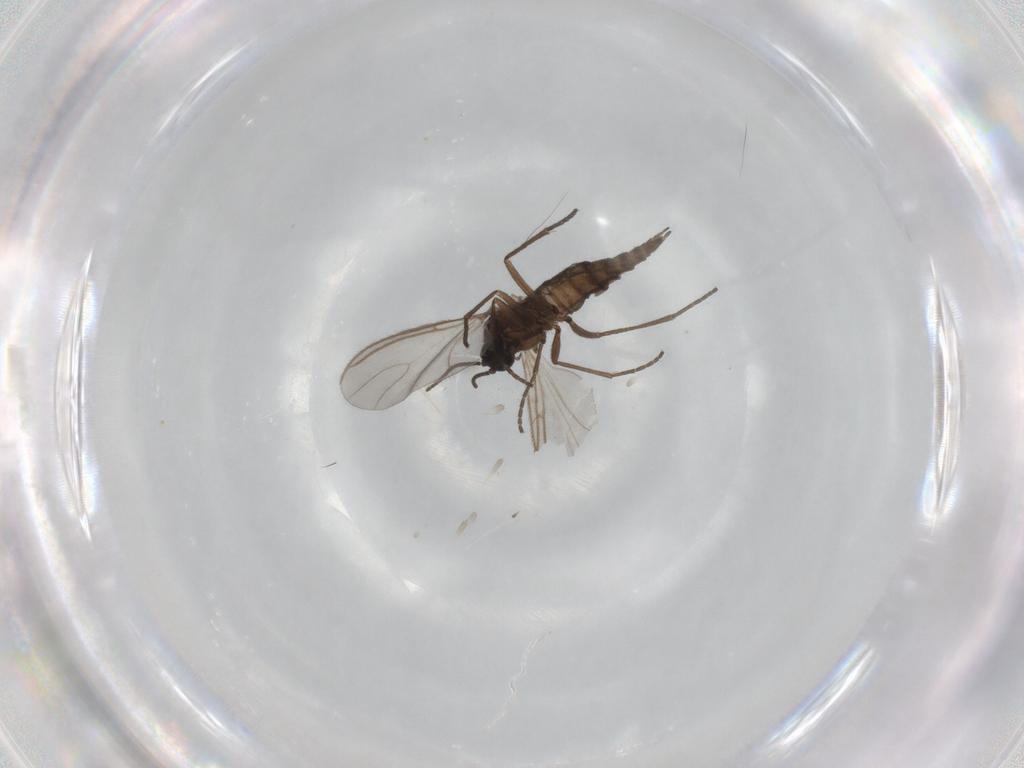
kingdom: Animalia
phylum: Arthropoda
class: Insecta
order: Diptera
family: Sciaridae
